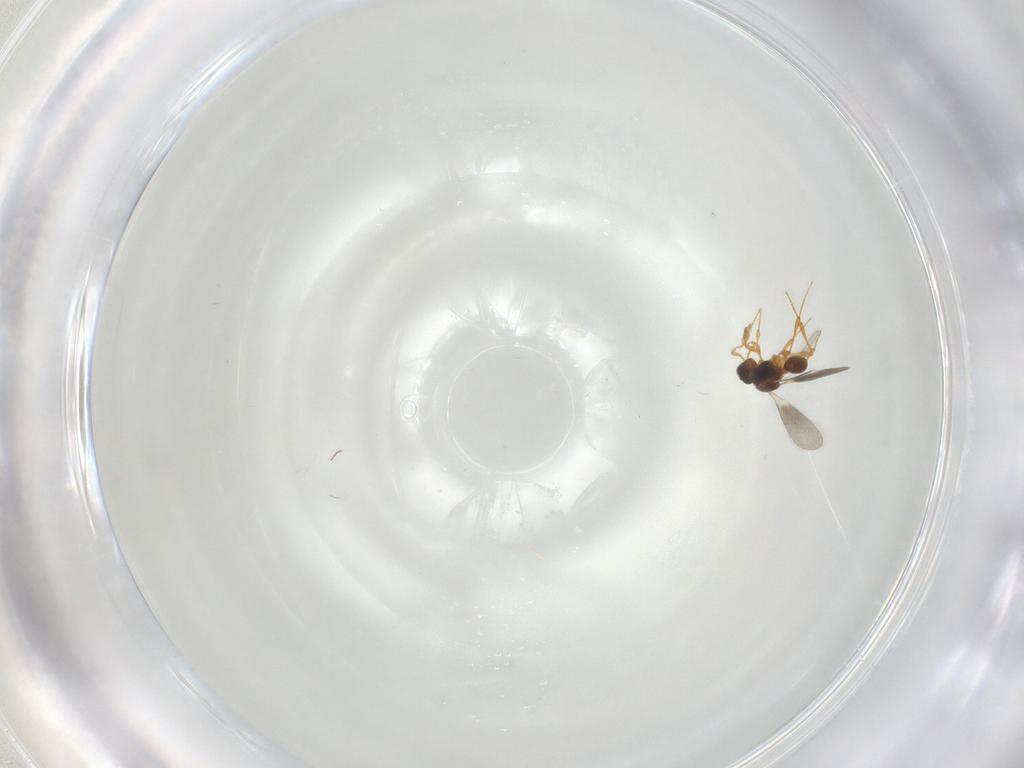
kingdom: Animalia
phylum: Arthropoda
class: Insecta
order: Hymenoptera
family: Platygastridae
